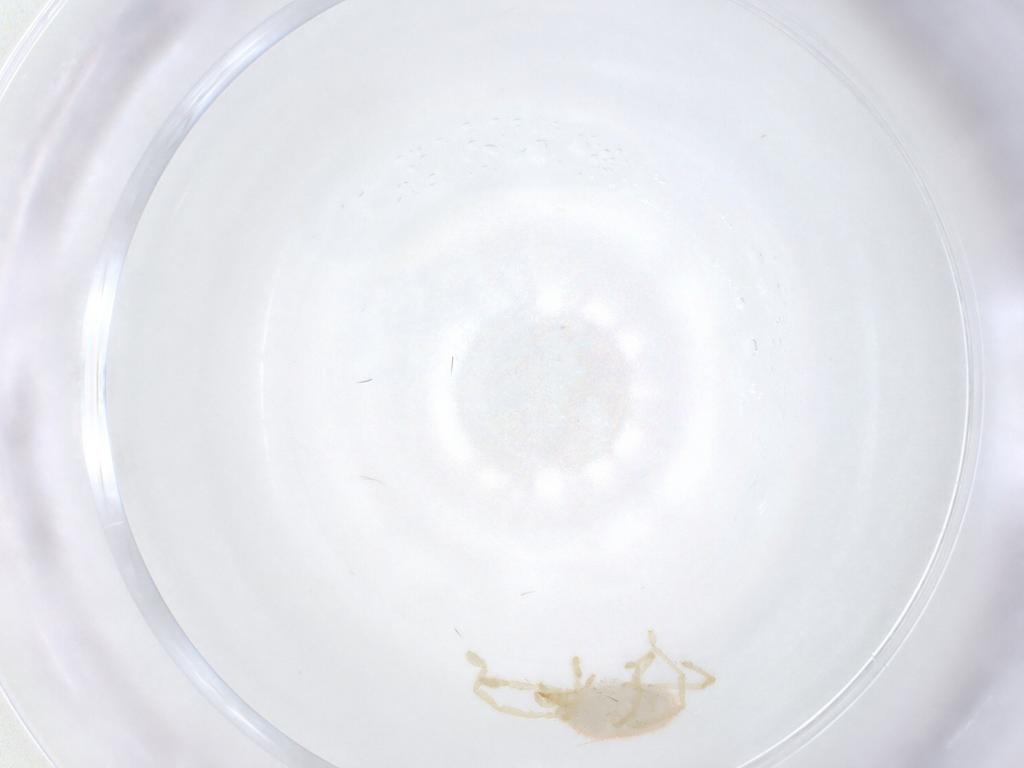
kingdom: Animalia
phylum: Arthropoda
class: Arachnida
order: Trombidiformes
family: Erythraeidae
